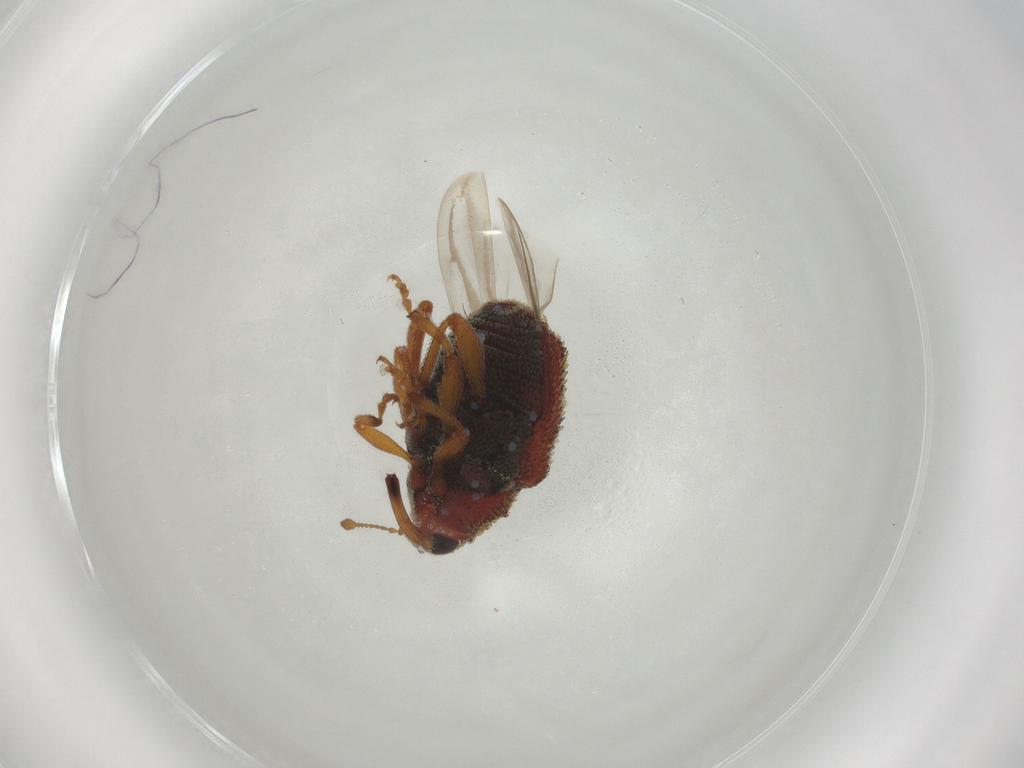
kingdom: Animalia
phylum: Arthropoda
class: Insecta
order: Coleoptera
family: Curculionidae
